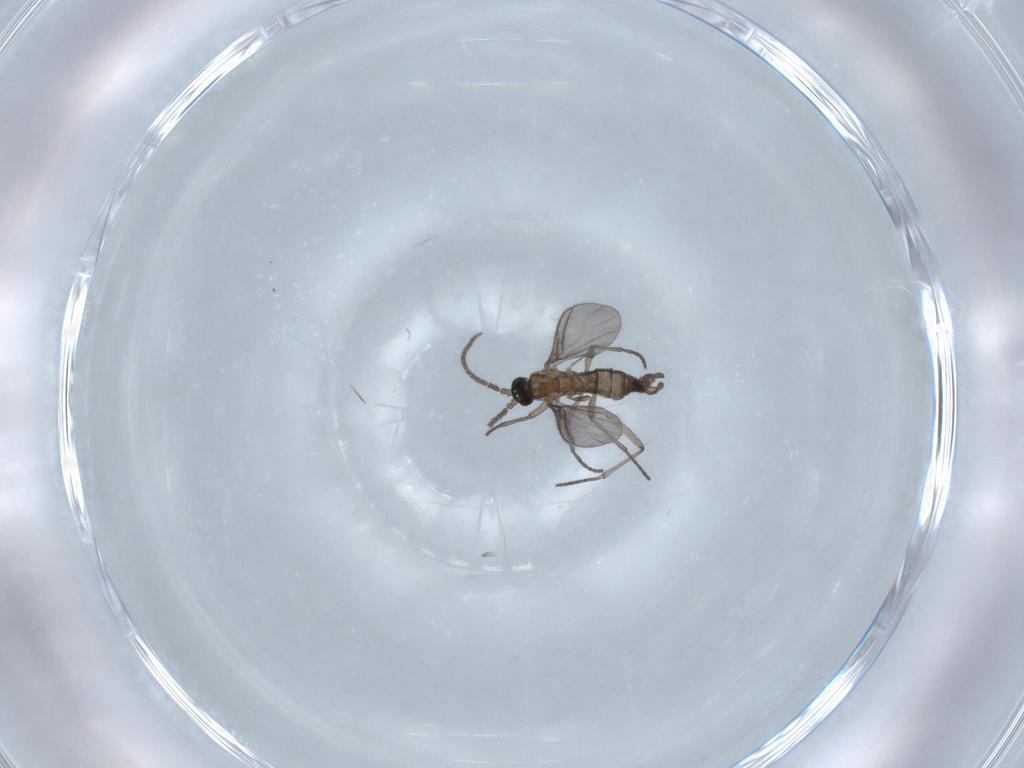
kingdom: Animalia
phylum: Arthropoda
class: Insecta
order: Diptera
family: Sciaridae
